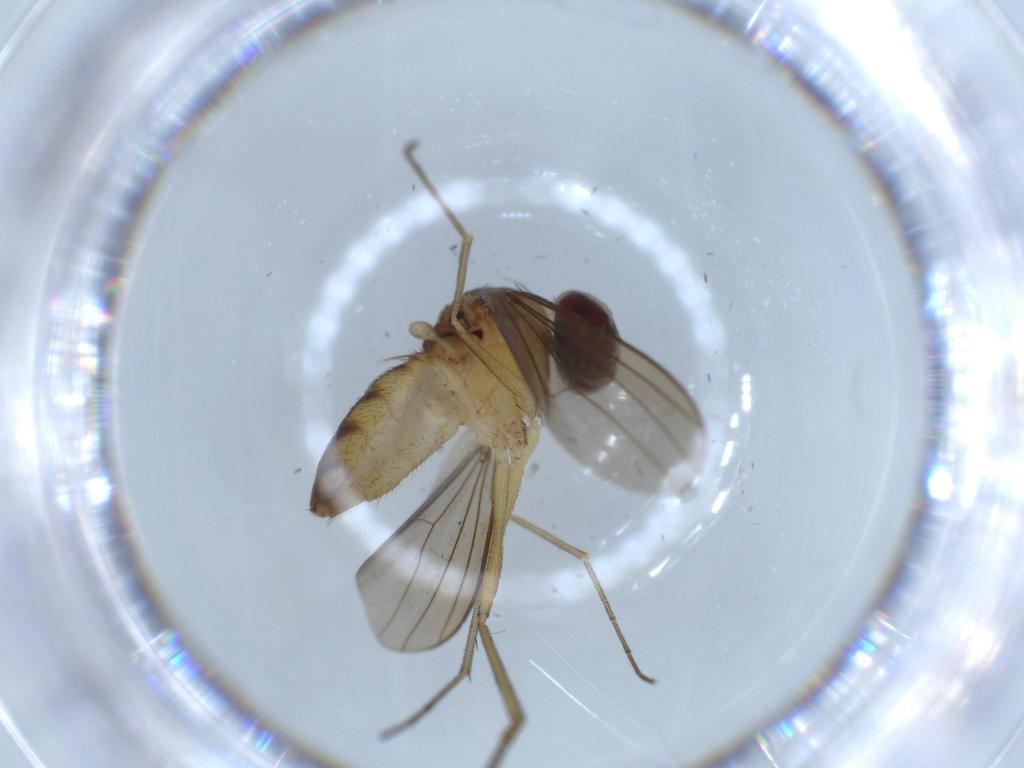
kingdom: Animalia
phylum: Arthropoda
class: Insecta
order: Diptera
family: Dolichopodidae
